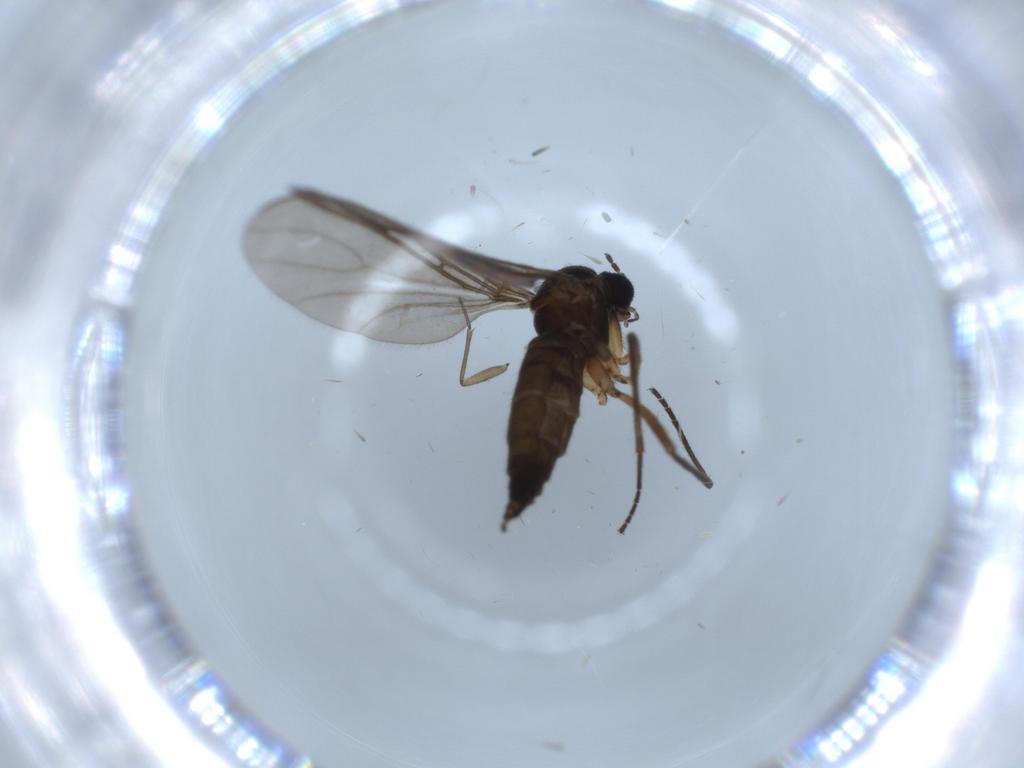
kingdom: Animalia
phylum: Arthropoda
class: Insecta
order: Diptera
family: Sciaridae
